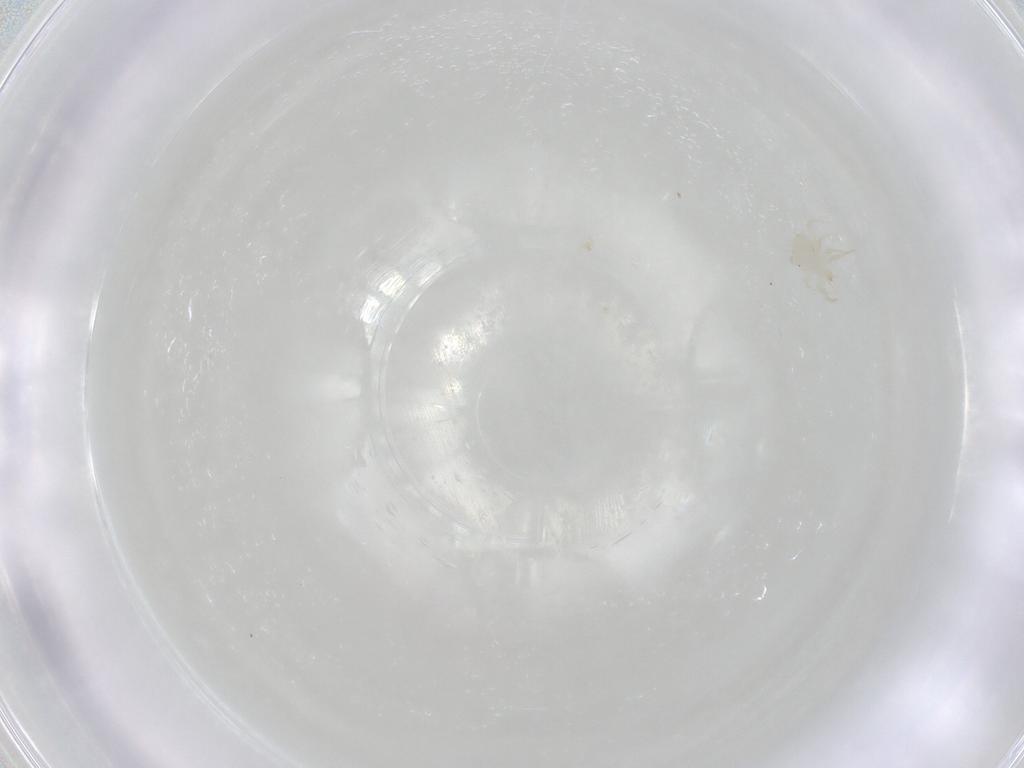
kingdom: Animalia
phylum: Arthropoda
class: Arachnida
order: Mesostigmata
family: Phytoseiidae
